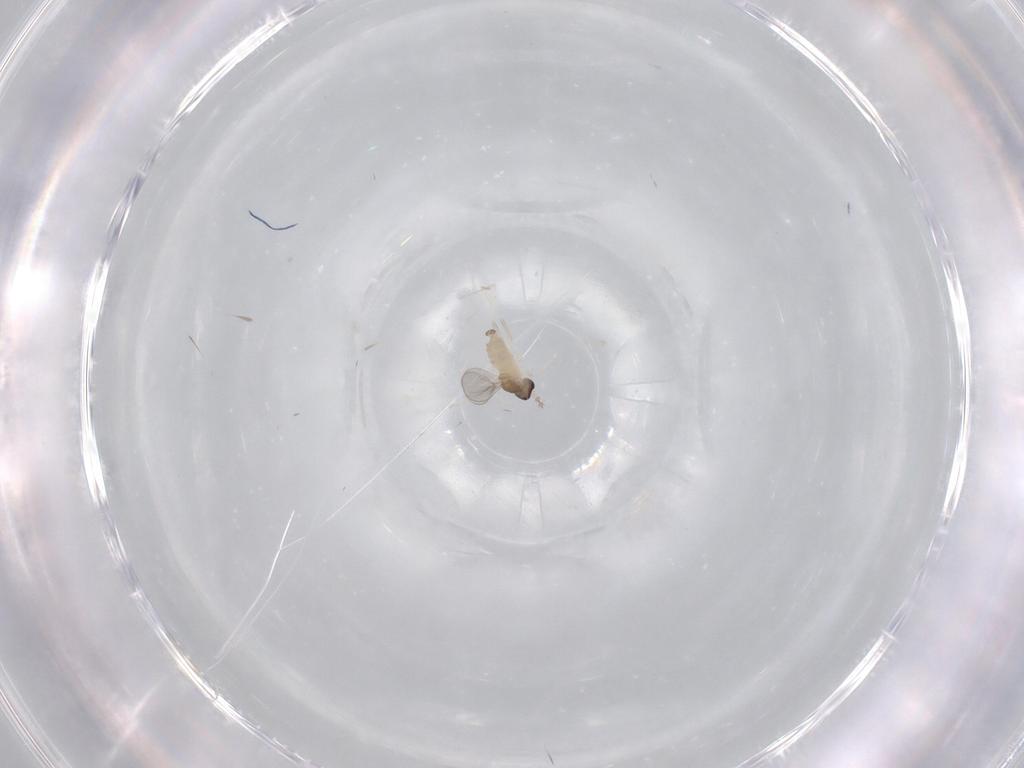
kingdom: Animalia
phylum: Arthropoda
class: Insecta
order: Diptera
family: Cecidomyiidae
